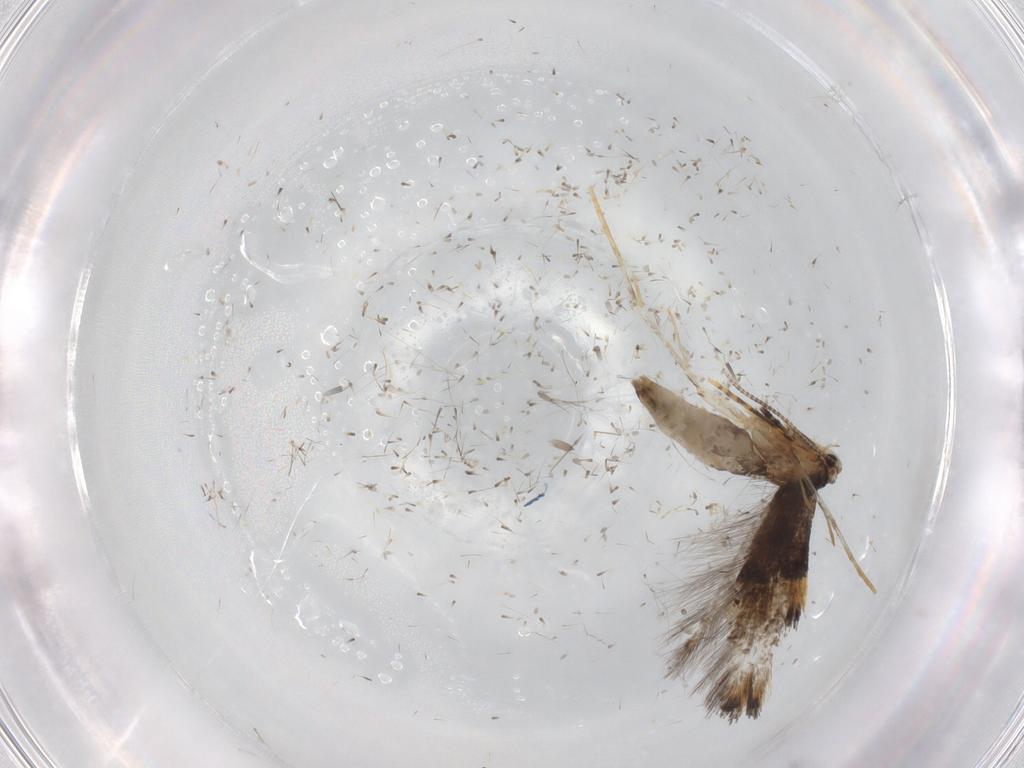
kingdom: Animalia
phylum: Arthropoda
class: Insecta
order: Lepidoptera
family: Tineidae
